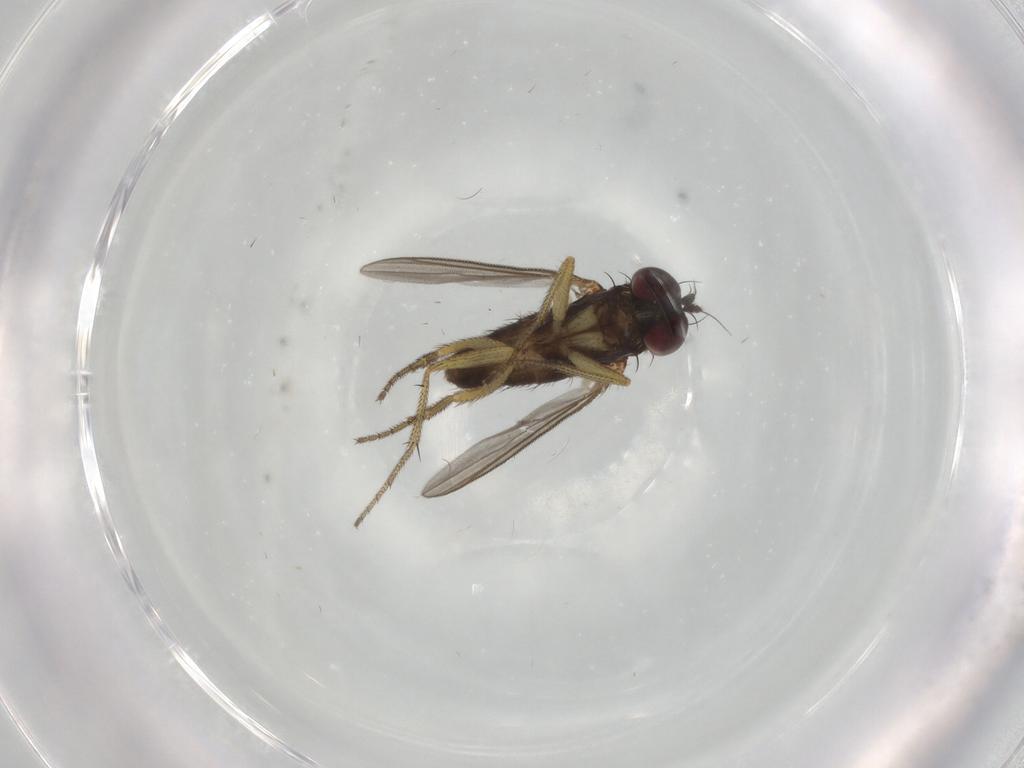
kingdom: Animalia
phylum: Arthropoda
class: Insecta
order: Diptera
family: Dolichopodidae
